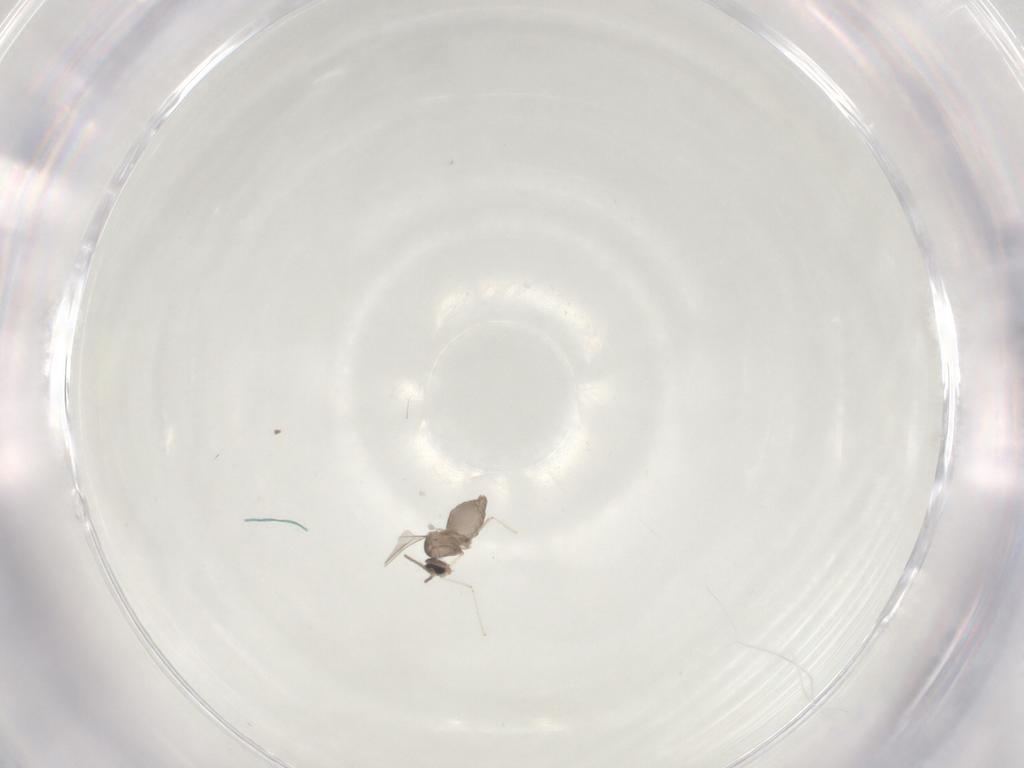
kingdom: Animalia
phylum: Arthropoda
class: Insecta
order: Diptera
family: Cecidomyiidae
